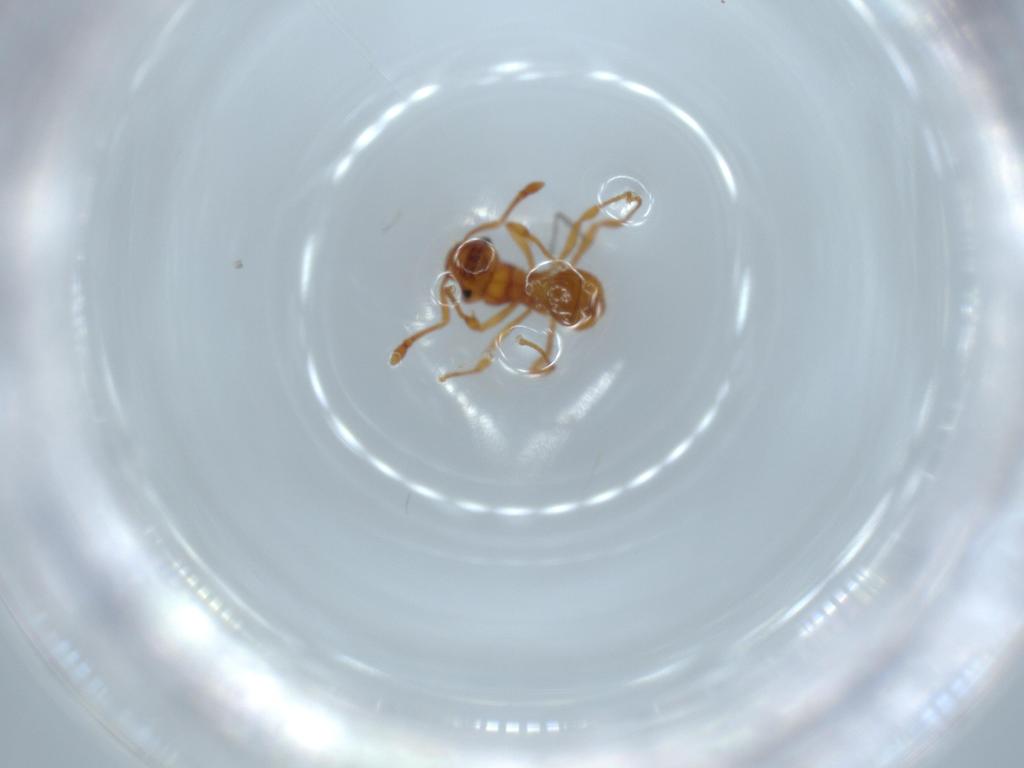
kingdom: Animalia
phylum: Arthropoda
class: Insecta
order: Hymenoptera
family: Formicidae
